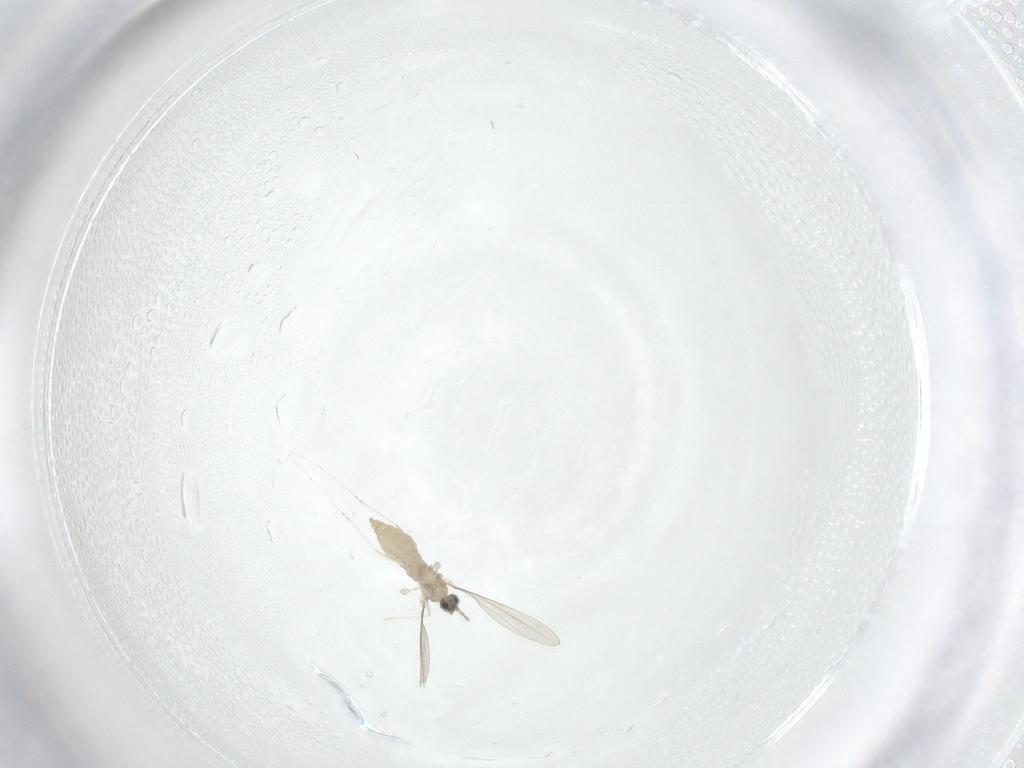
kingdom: Animalia
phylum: Arthropoda
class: Insecta
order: Diptera
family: Cecidomyiidae
